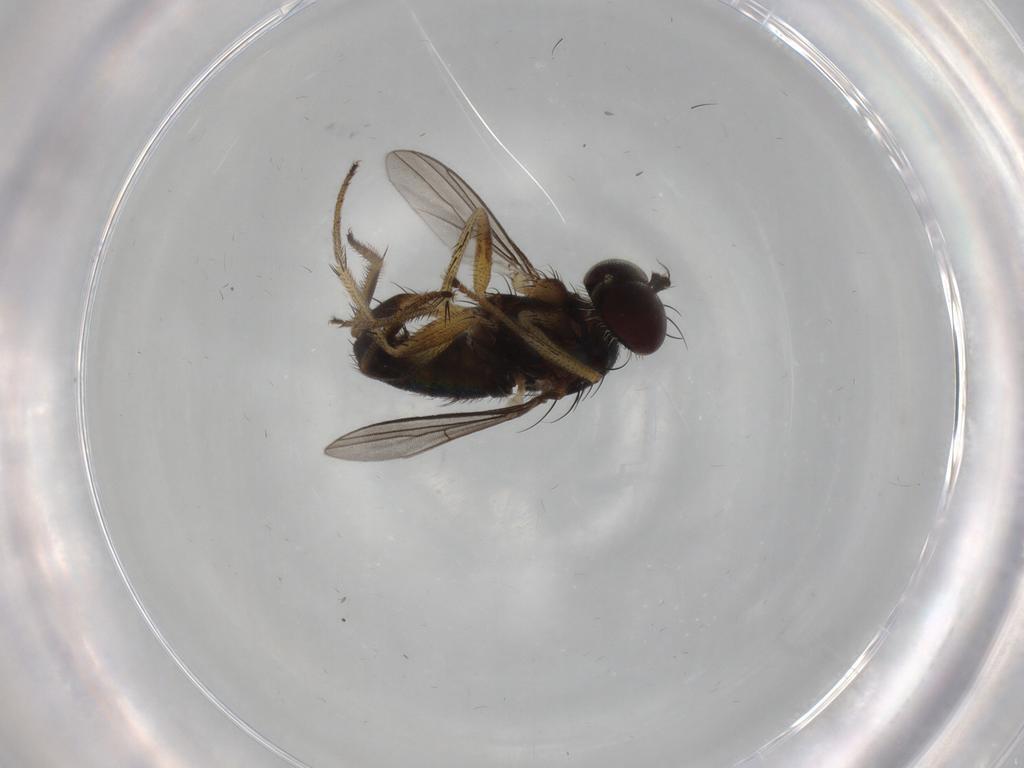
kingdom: Animalia
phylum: Arthropoda
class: Insecta
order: Diptera
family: Dolichopodidae
